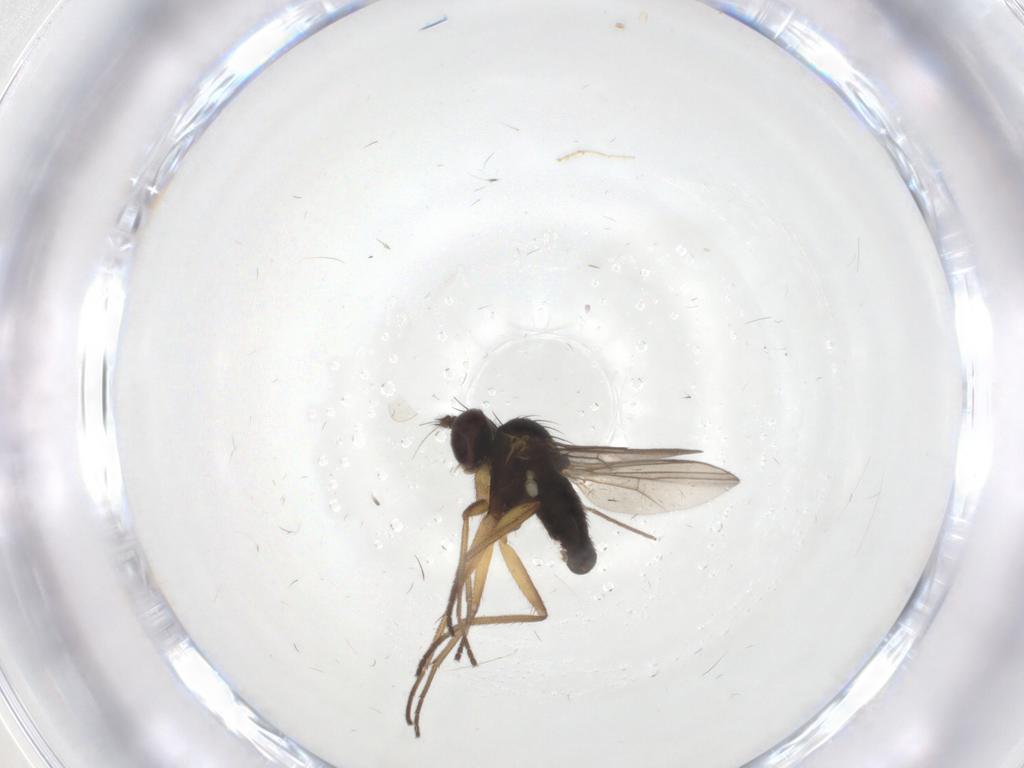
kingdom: Animalia
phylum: Arthropoda
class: Insecta
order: Diptera
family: Dolichopodidae
